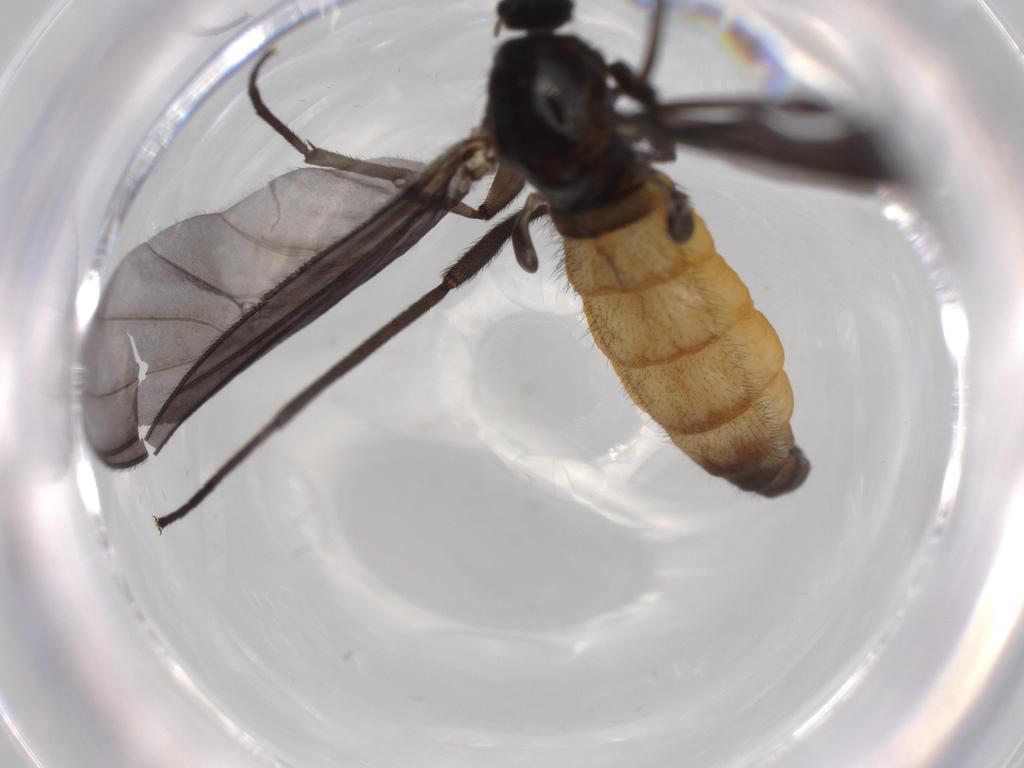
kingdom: Animalia
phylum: Arthropoda
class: Insecta
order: Diptera
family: Sciaridae
